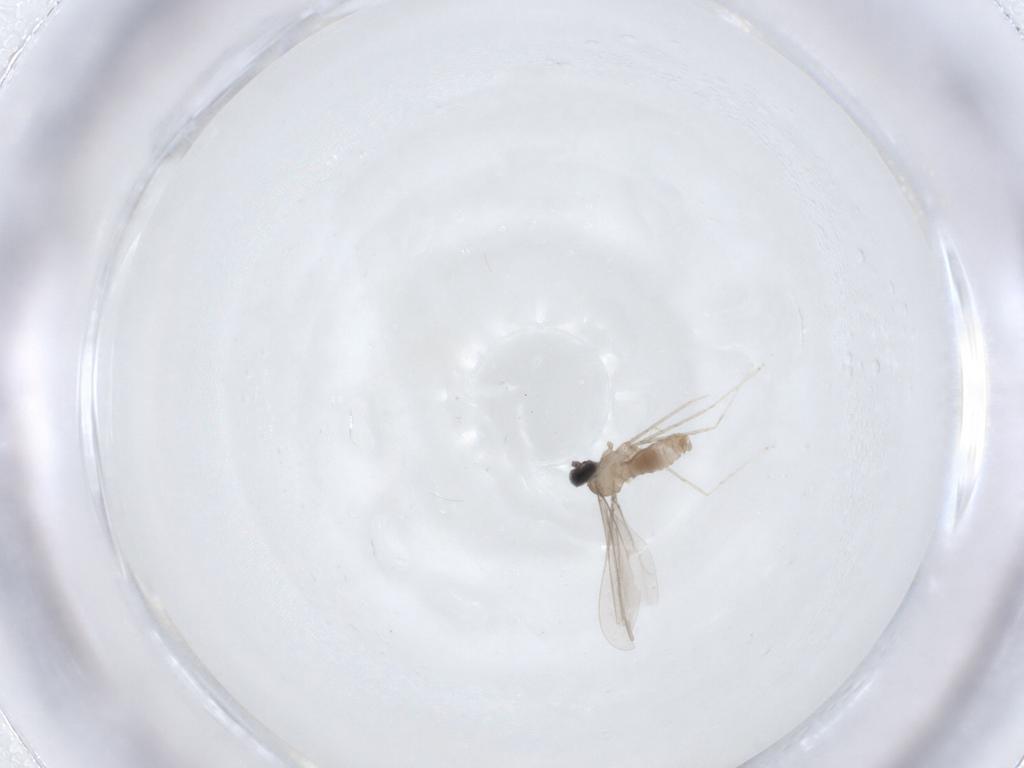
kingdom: Animalia
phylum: Arthropoda
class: Insecta
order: Diptera
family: Cecidomyiidae
